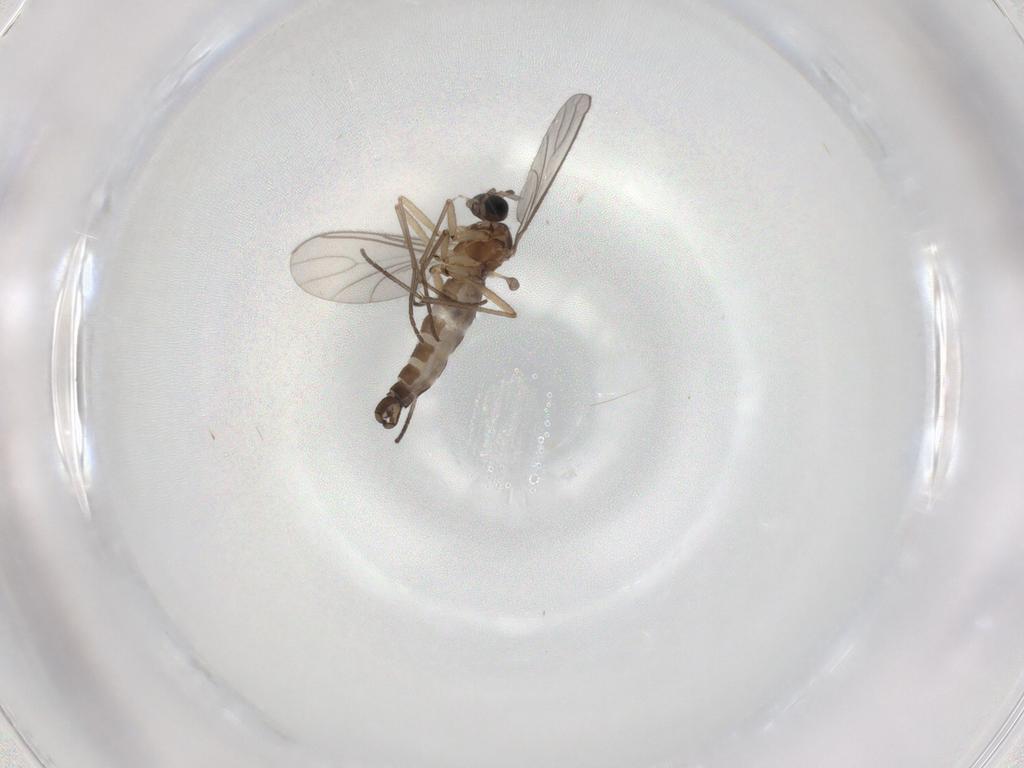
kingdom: Animalia
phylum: Arthropoda
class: Insecta
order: Diptera
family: Sciaridae
